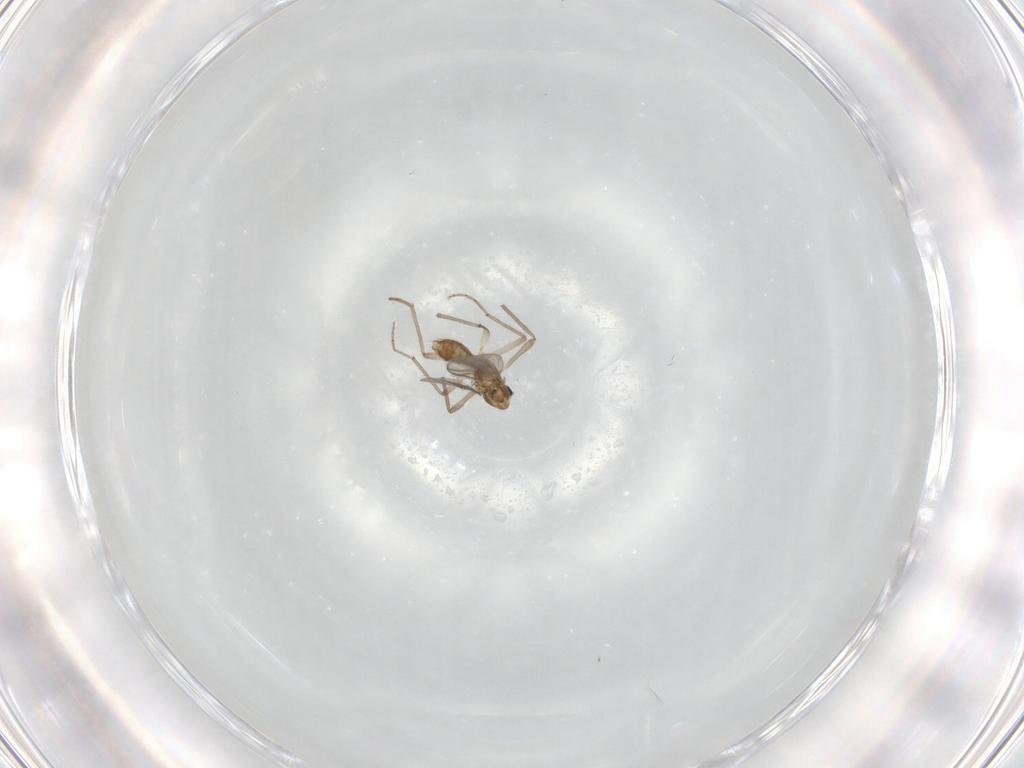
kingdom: Animalia
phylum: Arthropoda
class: Insecta
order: Diptera
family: Chironomidae
